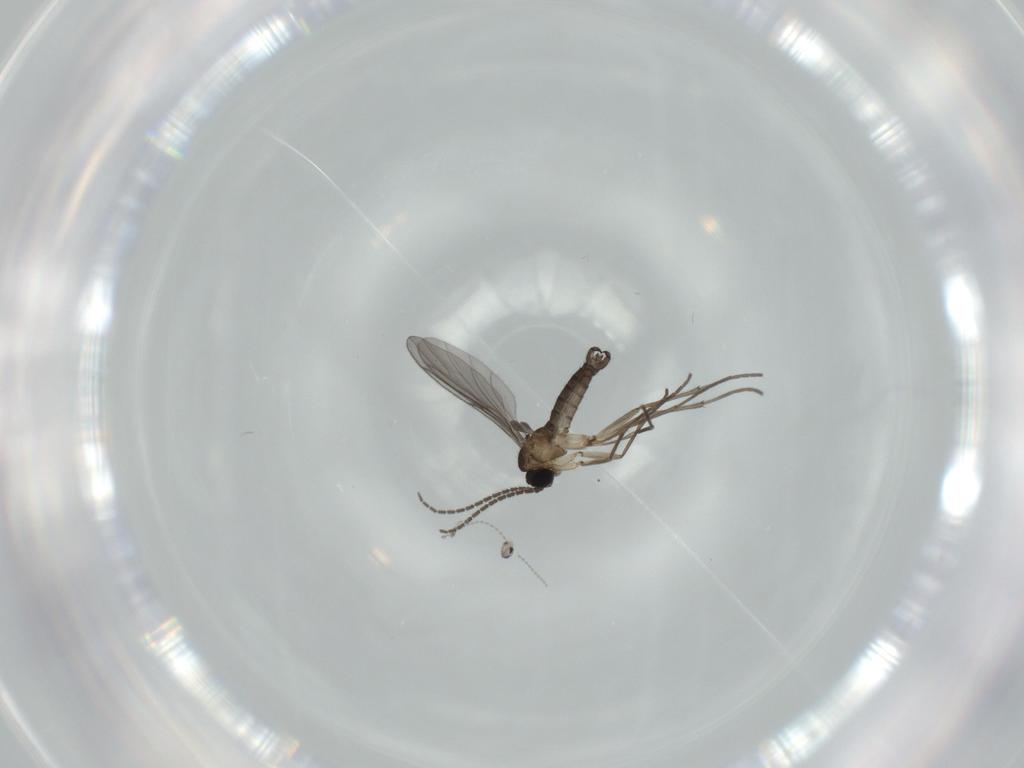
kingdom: Animalia
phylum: Arthropoda
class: Insecta
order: Diptera
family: Sciaridae
